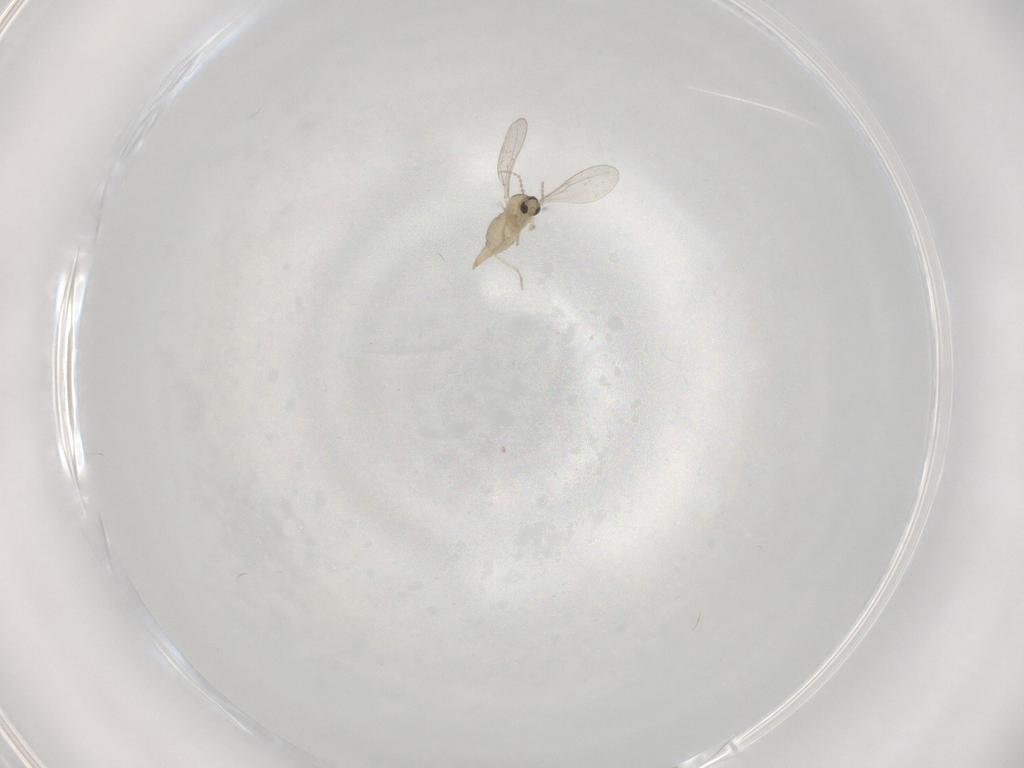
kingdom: Animalia
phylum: Arthropoda
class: Insecta
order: Diptera
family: Cecidomyiidae
